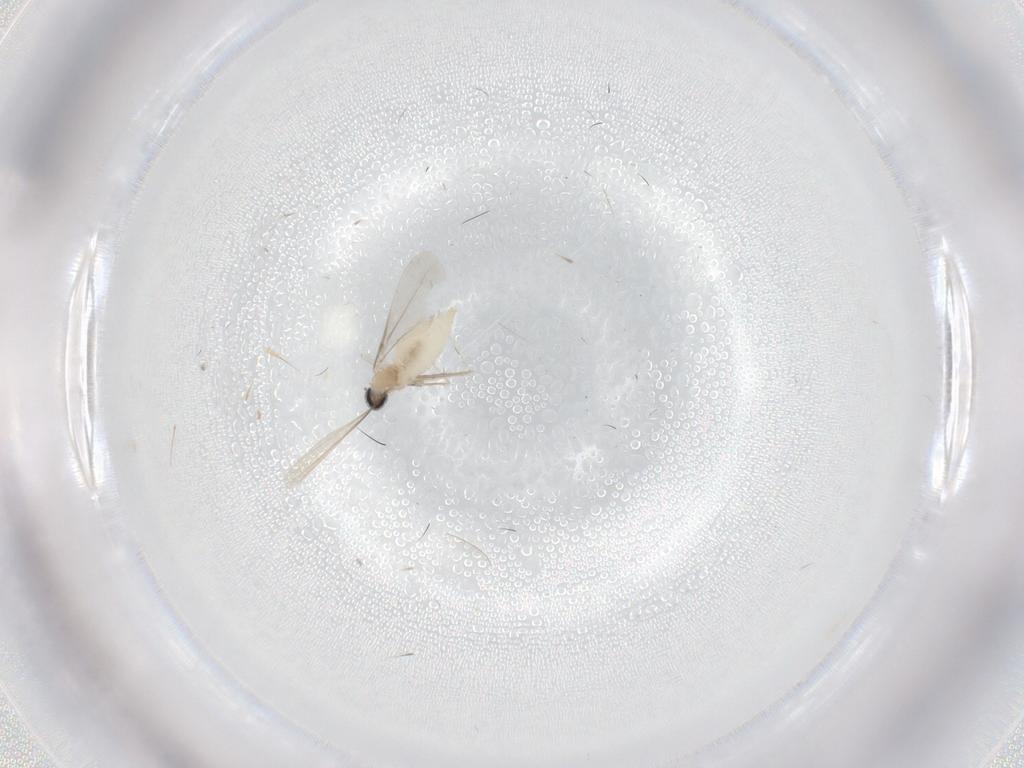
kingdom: Animalia
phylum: Arthropoda
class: Insecta
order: Diptera
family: Cecidomyiidae
